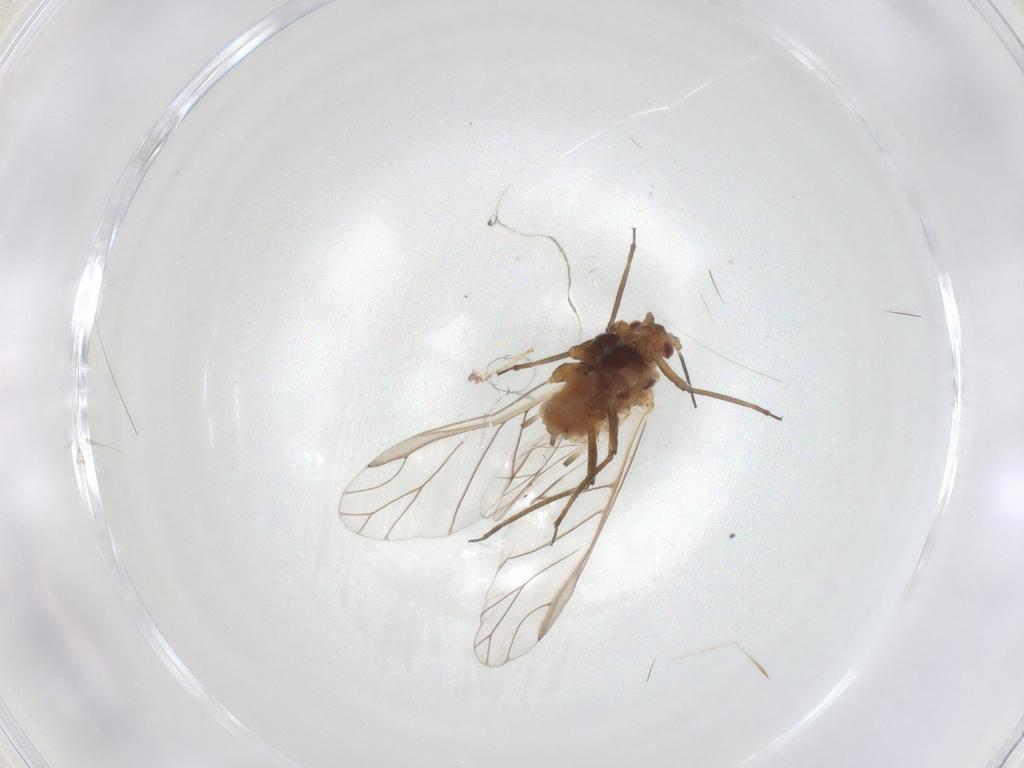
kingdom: Animalia
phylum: Arthropoda
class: Insecta
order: Hemiptera
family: Aphididae
